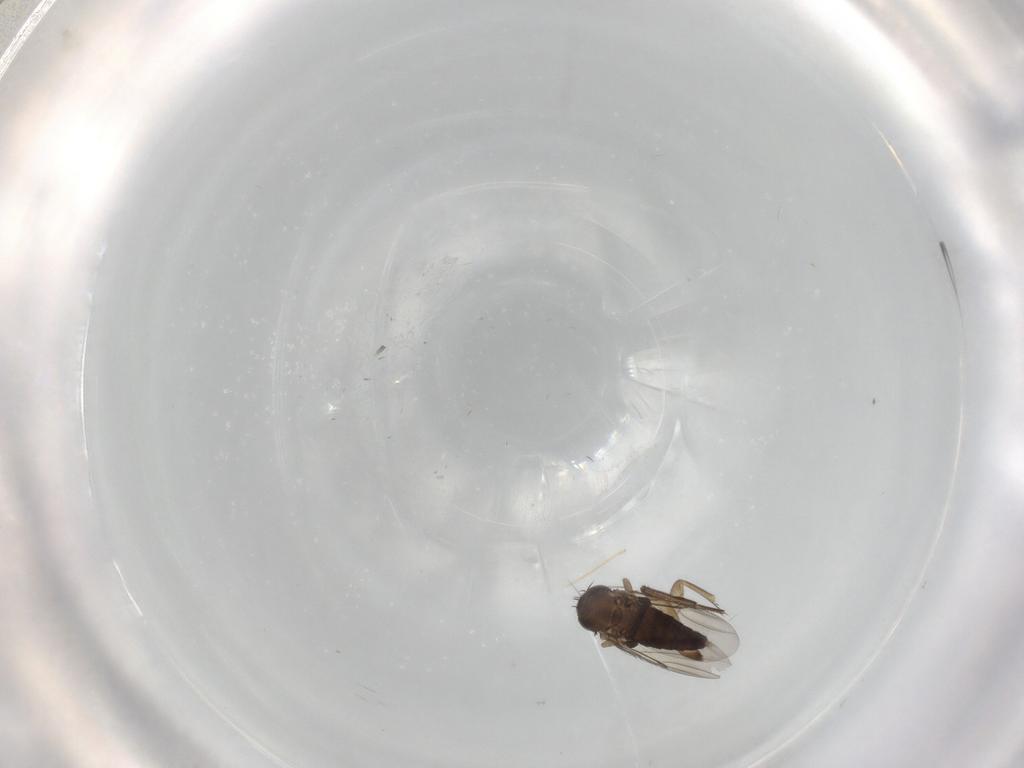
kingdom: Animalia
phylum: Arthropoda
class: Insecta
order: Diptera
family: Phoridae
